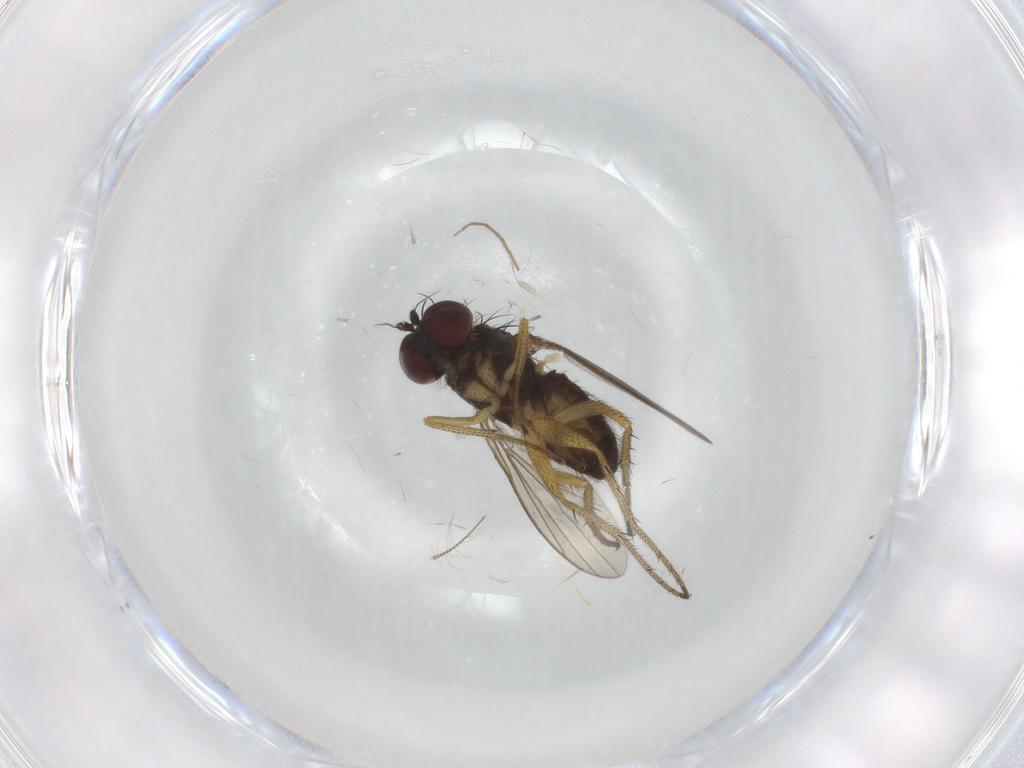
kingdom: Animalia
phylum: Arthropoda
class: Insecta
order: Diptera
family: Dolichopodidae
